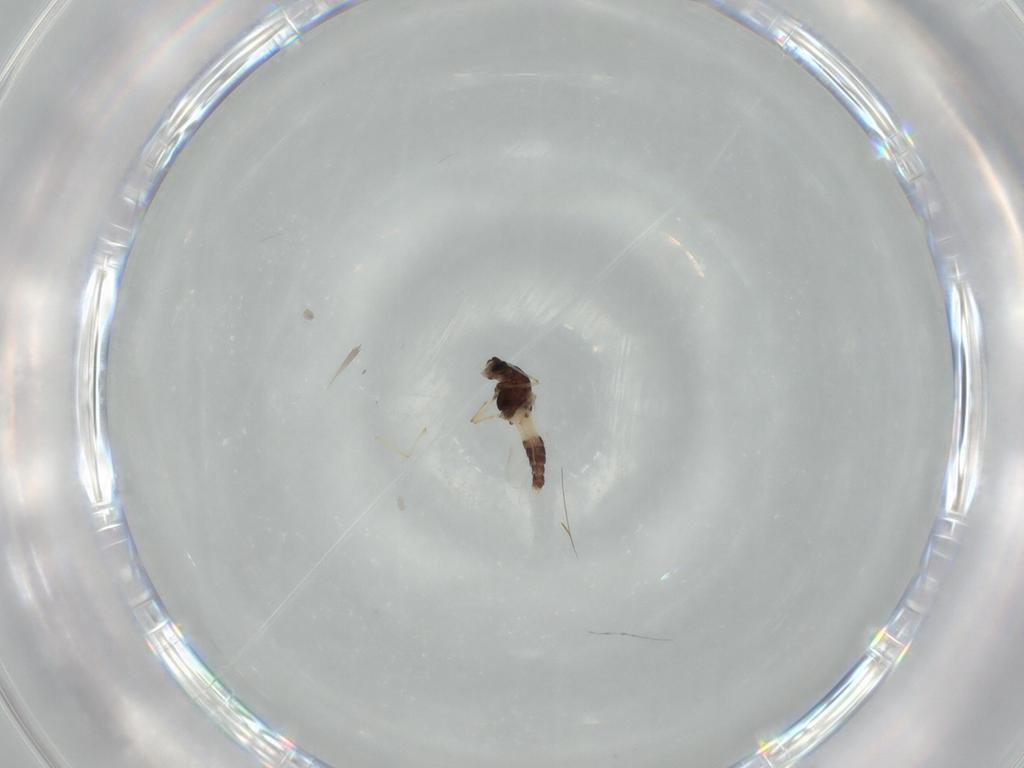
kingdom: Animalia
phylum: Arthropoda
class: Insecta
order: Diptera
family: Chironomidae
